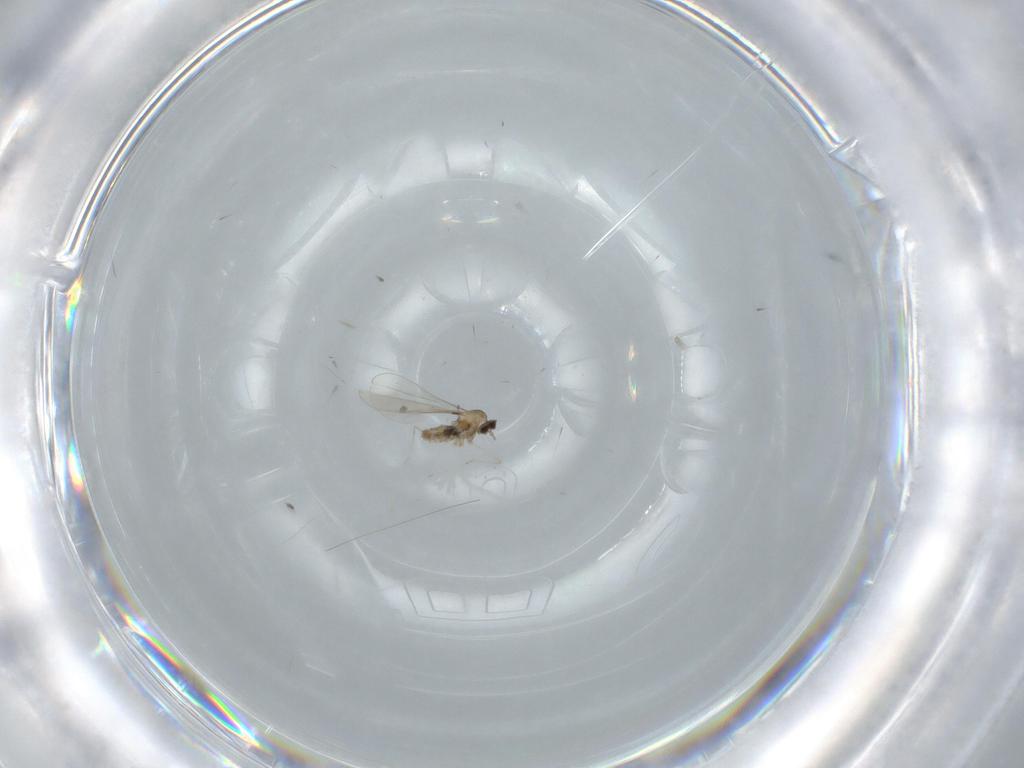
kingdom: Animalia
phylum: Arthropoda
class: Insecta
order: Diptera
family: Cecidomyiidae
